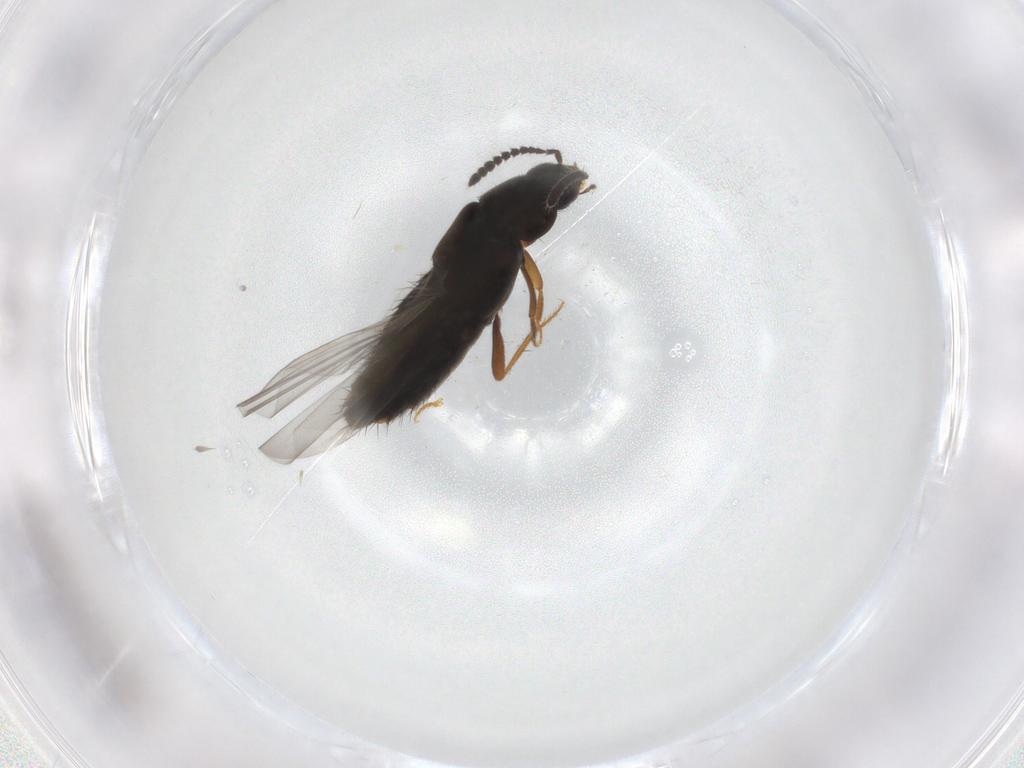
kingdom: Animalia
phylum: Arthropoda
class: Insecta
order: Coleoptera
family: Staphylinidae
